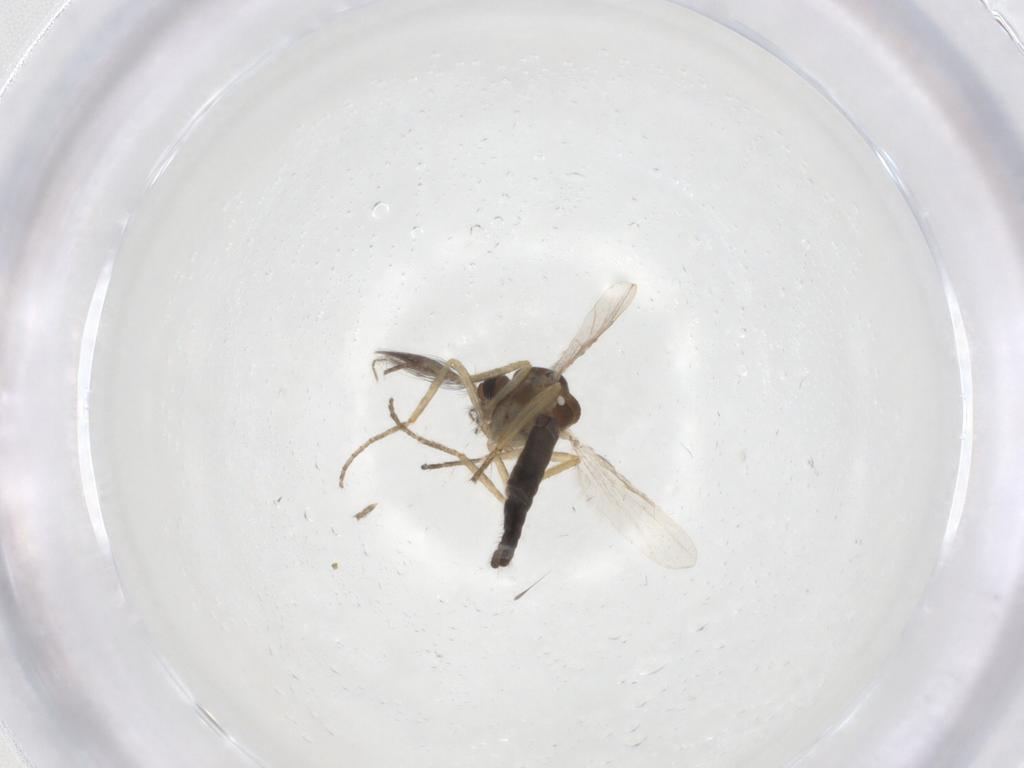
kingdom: Animalia
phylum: Arthropoda
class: Insecta
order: Diptera
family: Ceratopogonidae
